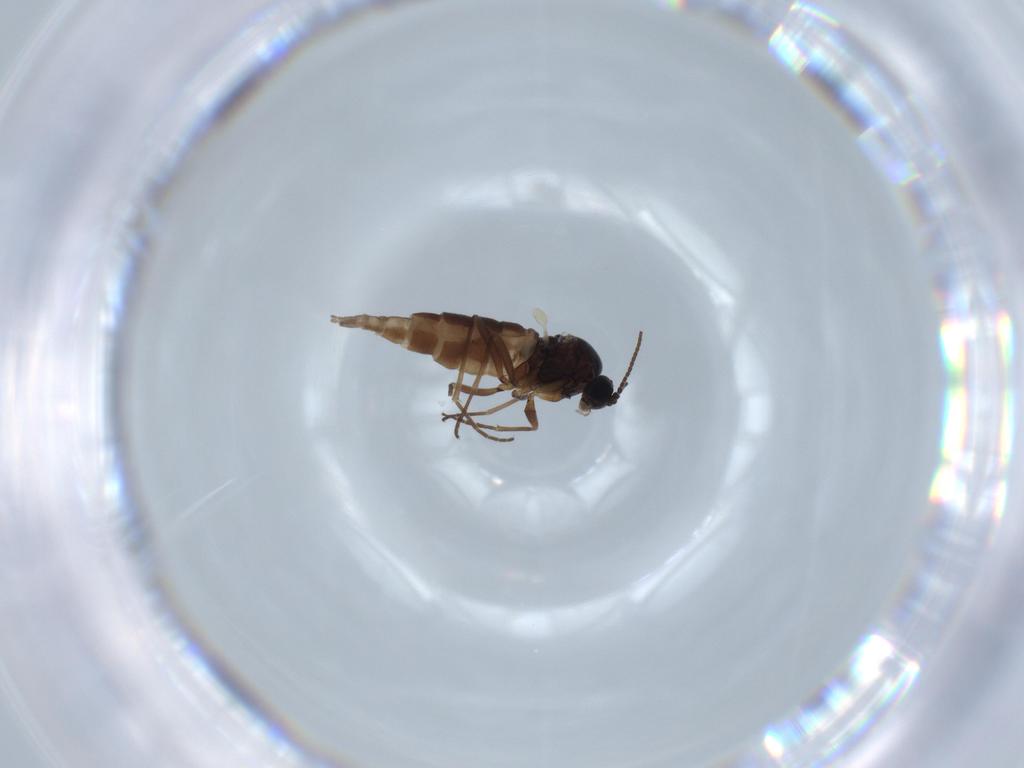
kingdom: Animalia
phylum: Arthropoda
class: Insecta
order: Diptera
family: Sciaridae
